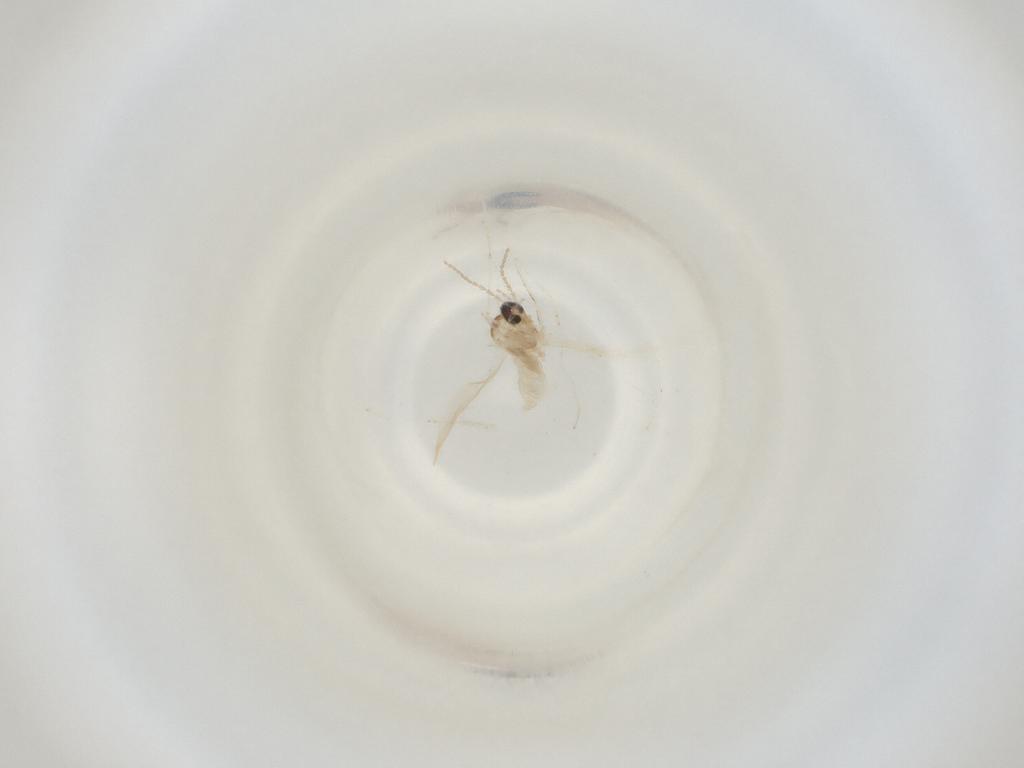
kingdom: Animalia
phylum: Arthropoda
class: Insecta
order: Diptera
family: Cecidomyiidae
